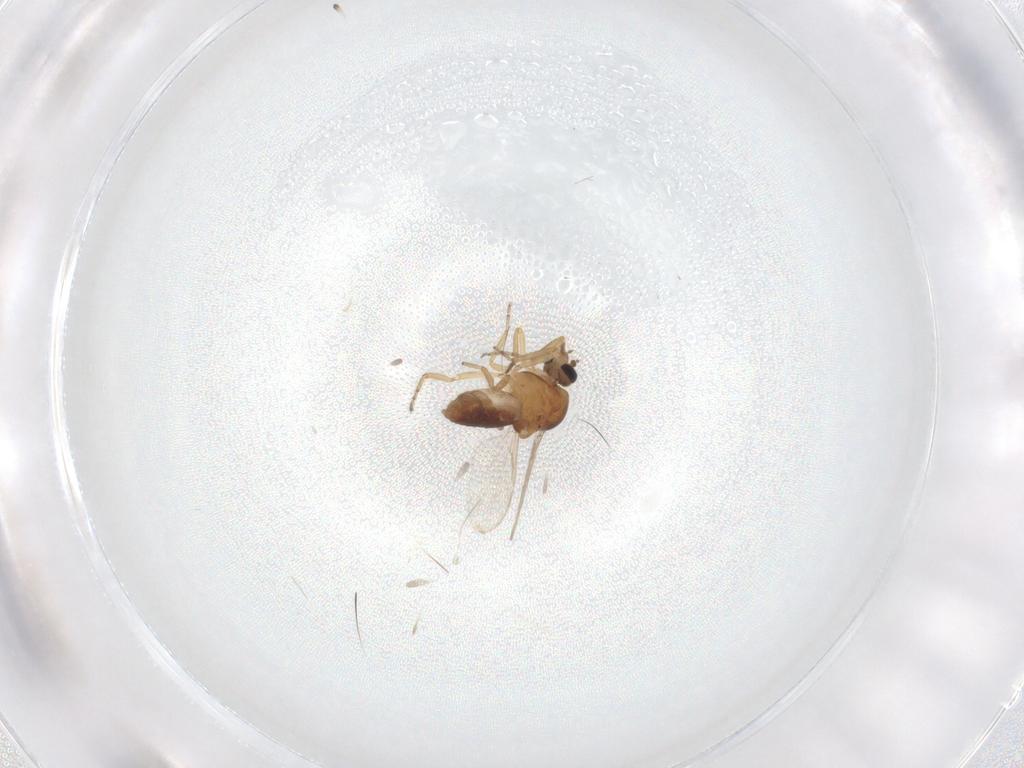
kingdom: Animalia
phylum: Arthropoda
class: Insecta
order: Diptera
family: Ceratopogonidae
